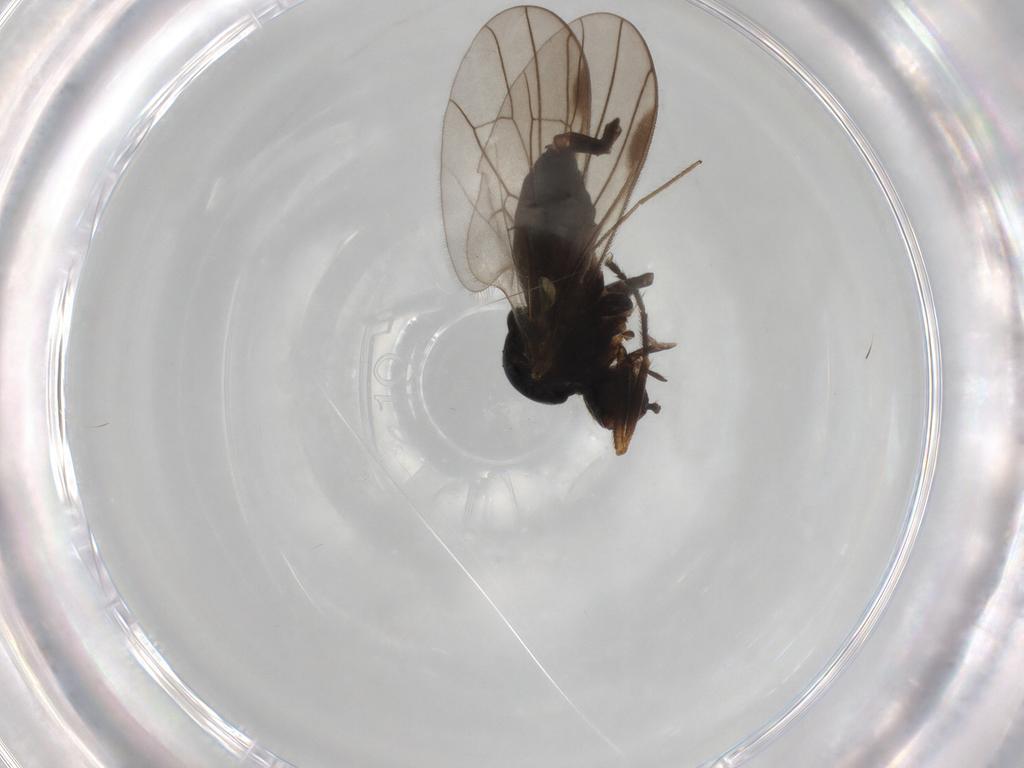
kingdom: Animalia
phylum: Arthropoda
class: Insecta
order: Diptera
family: Hybotidae
